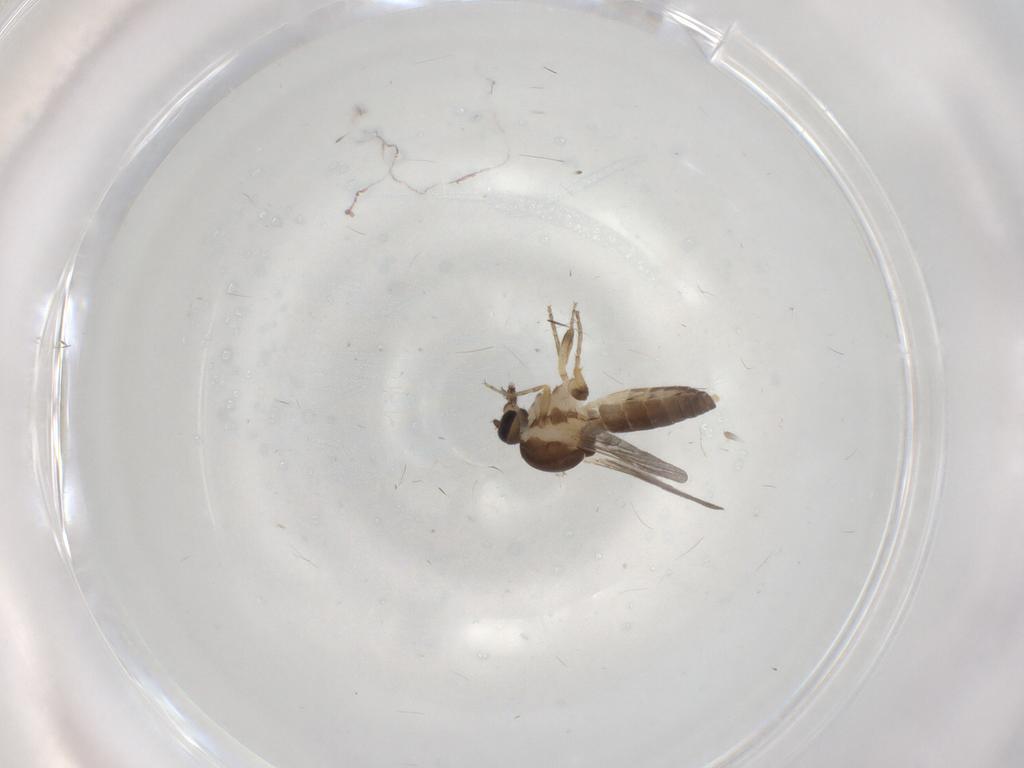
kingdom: Animalia
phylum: Arthropoda
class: Insecta
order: Diptera
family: Ceratopogonidae
